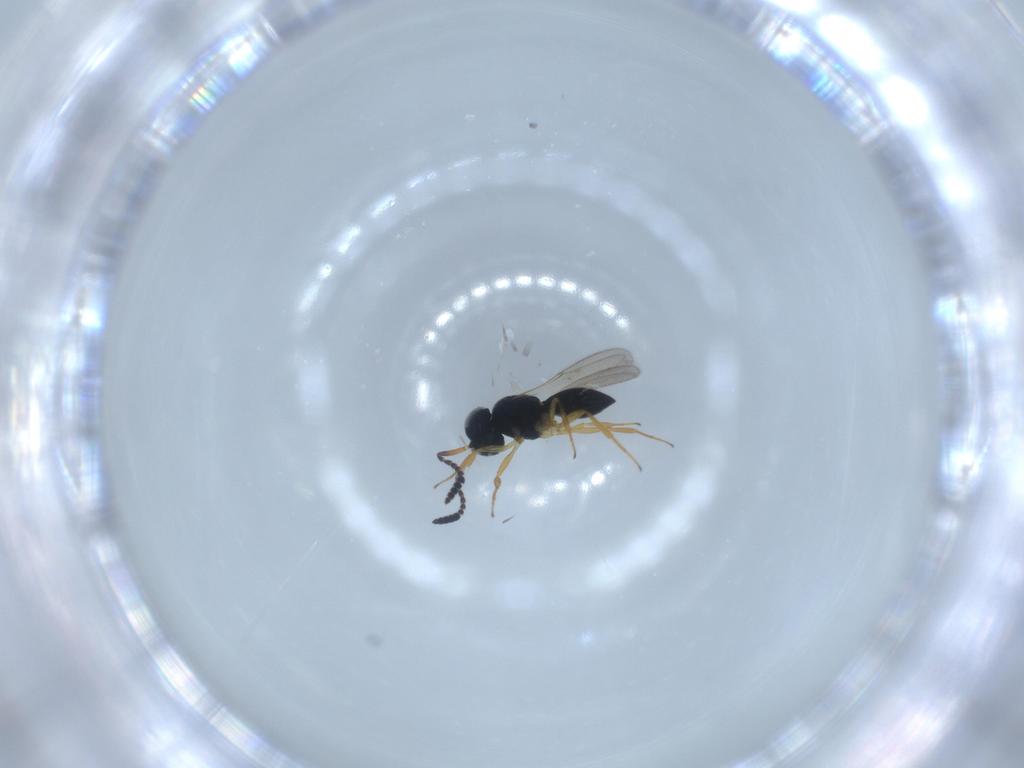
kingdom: Animalia
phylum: Arthropoda
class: Insecta
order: Hymenoptera
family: Scelionidae
